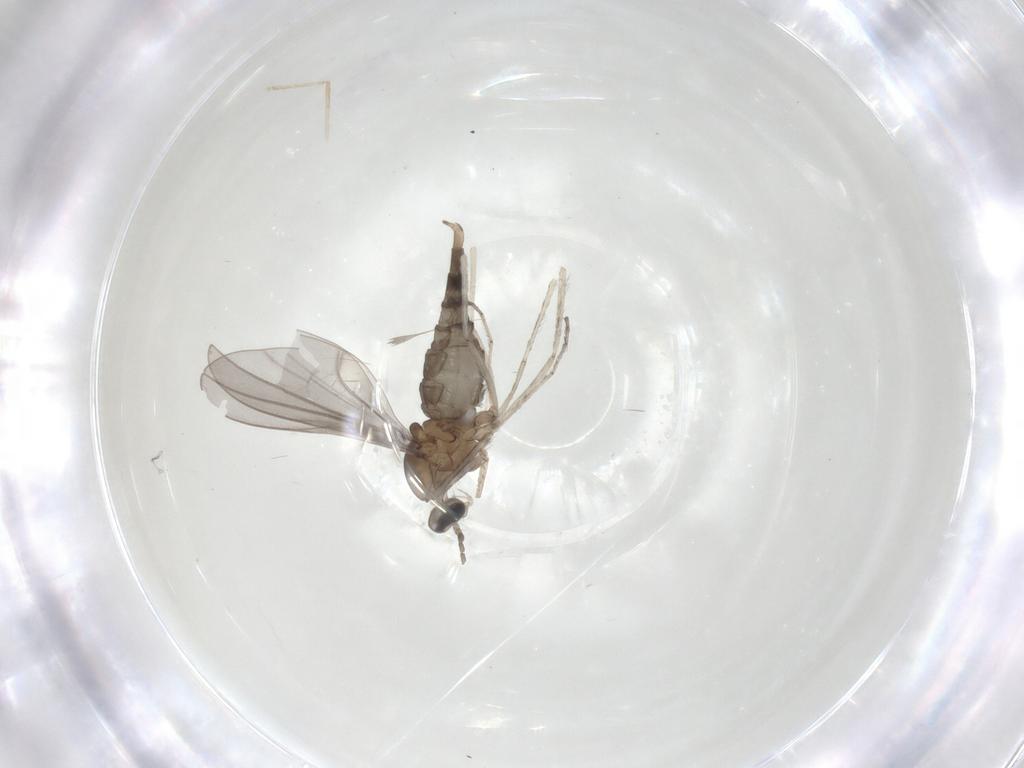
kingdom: Animalia
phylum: Arthropoda
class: Insecta
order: Diptera
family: Cecidomyiidae
